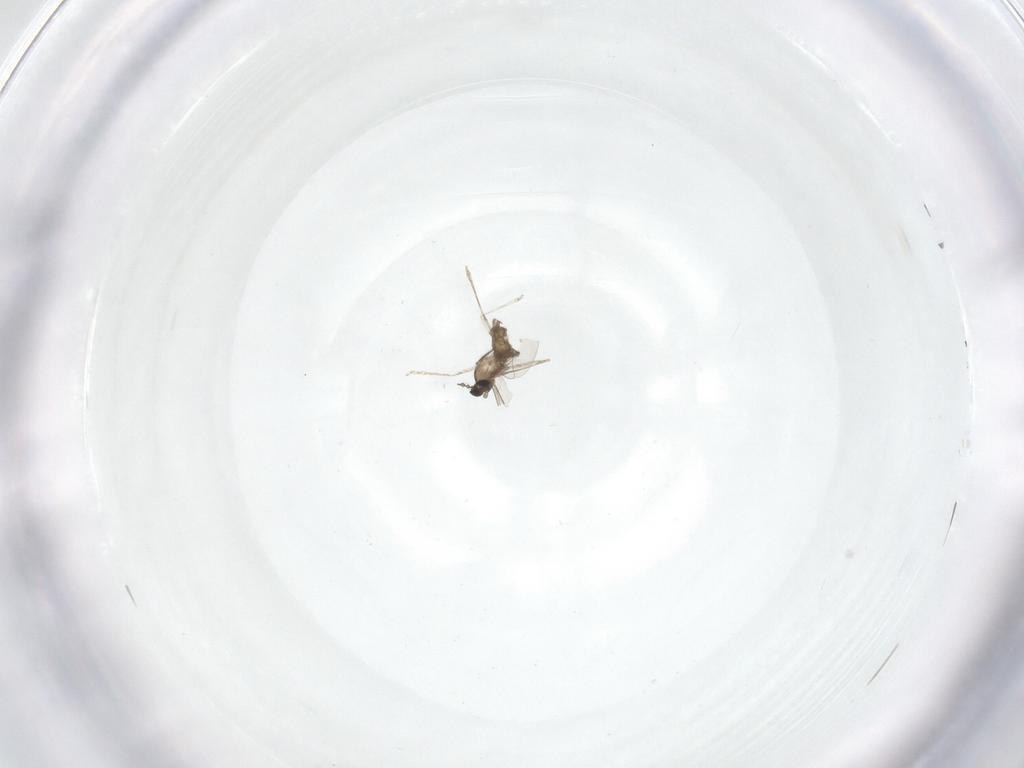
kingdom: Animalia
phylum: Arthropoda
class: Insecta
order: Diptera
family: Cecidomyiidae
